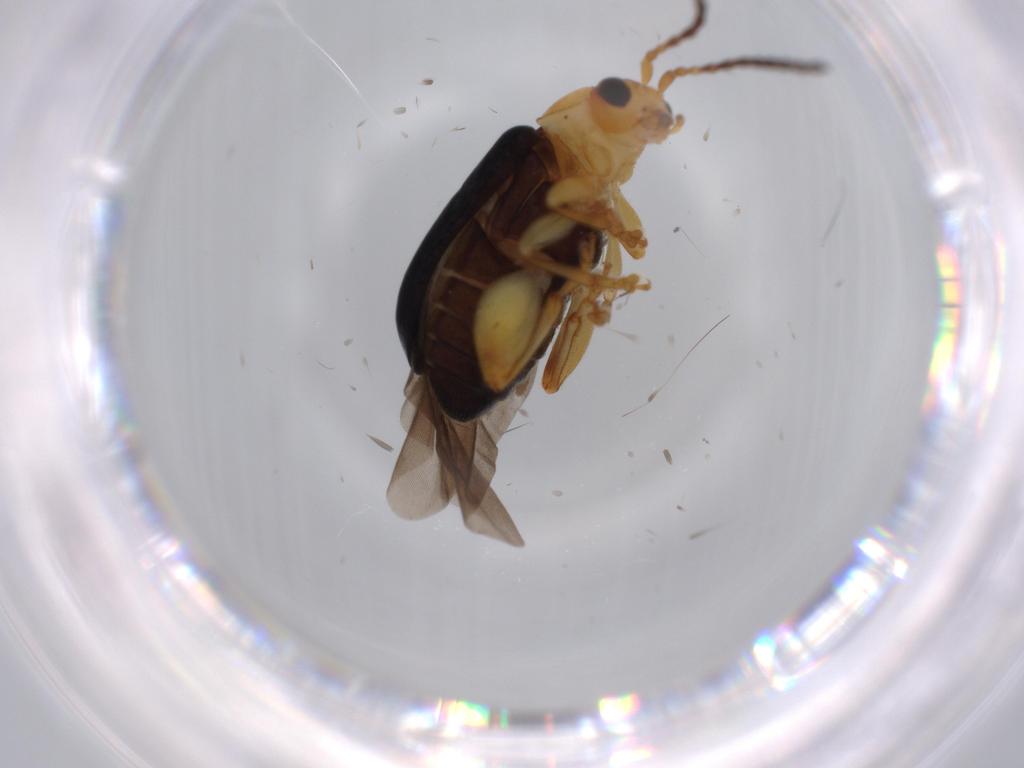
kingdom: Animalia
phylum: Arthropoda
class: Insecta
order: Coleoptera
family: Chrysomelidae
